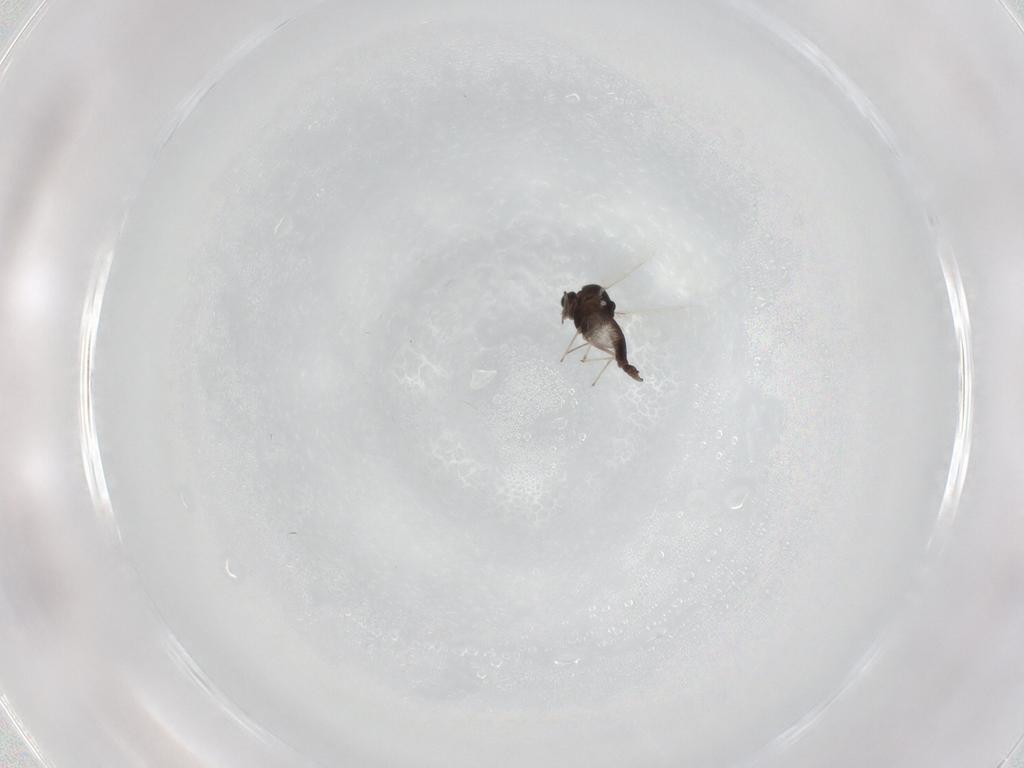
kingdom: Animalia
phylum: Arthropoda
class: Insecta
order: Diptera
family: Chironomidae
